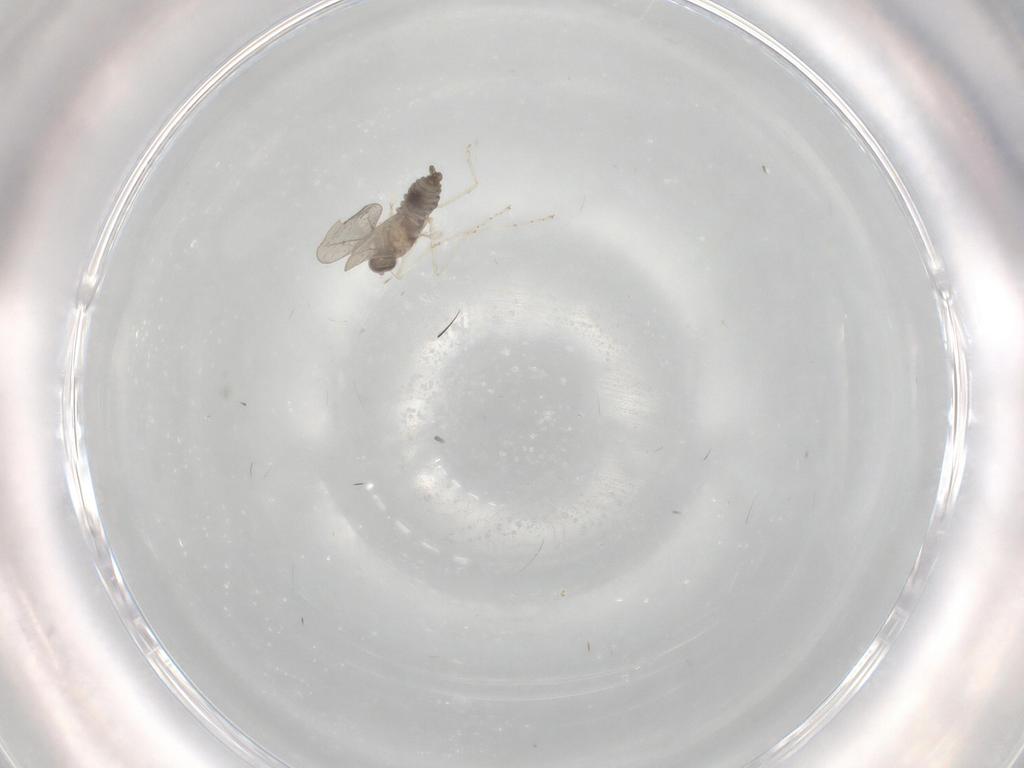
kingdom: Animalia
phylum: Arthropoda
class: Insecta
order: Diptera
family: Cecidomyiidae
